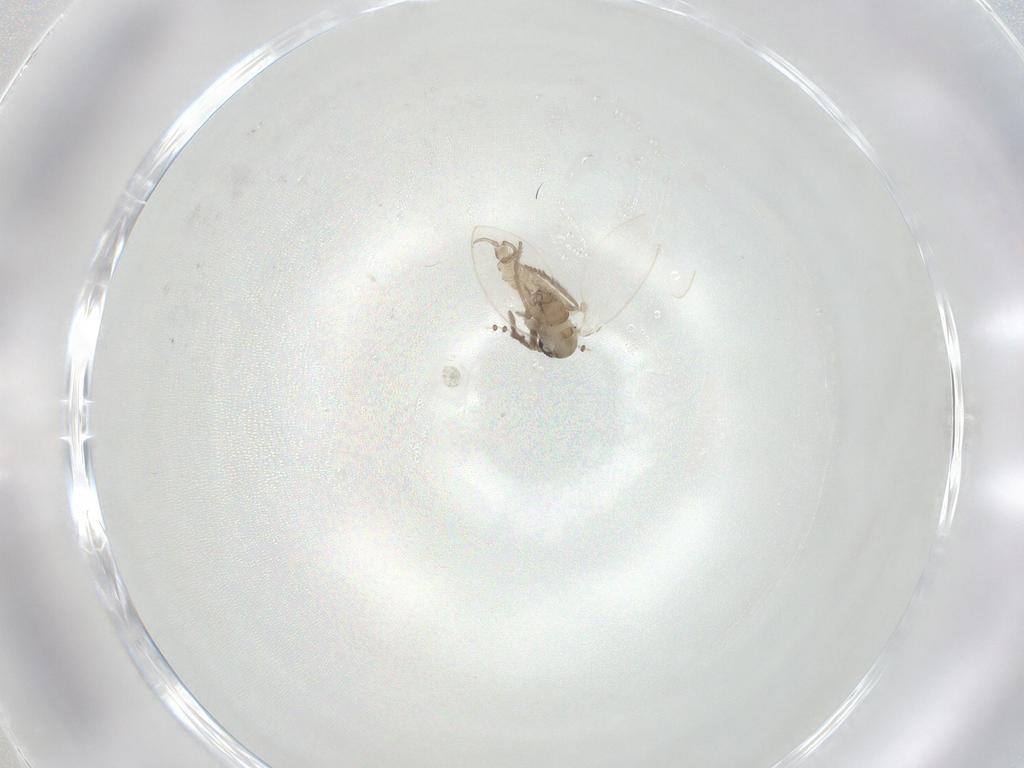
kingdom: Animalia
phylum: Arthropoda
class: Insecta
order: Diptera
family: Psychodidae
